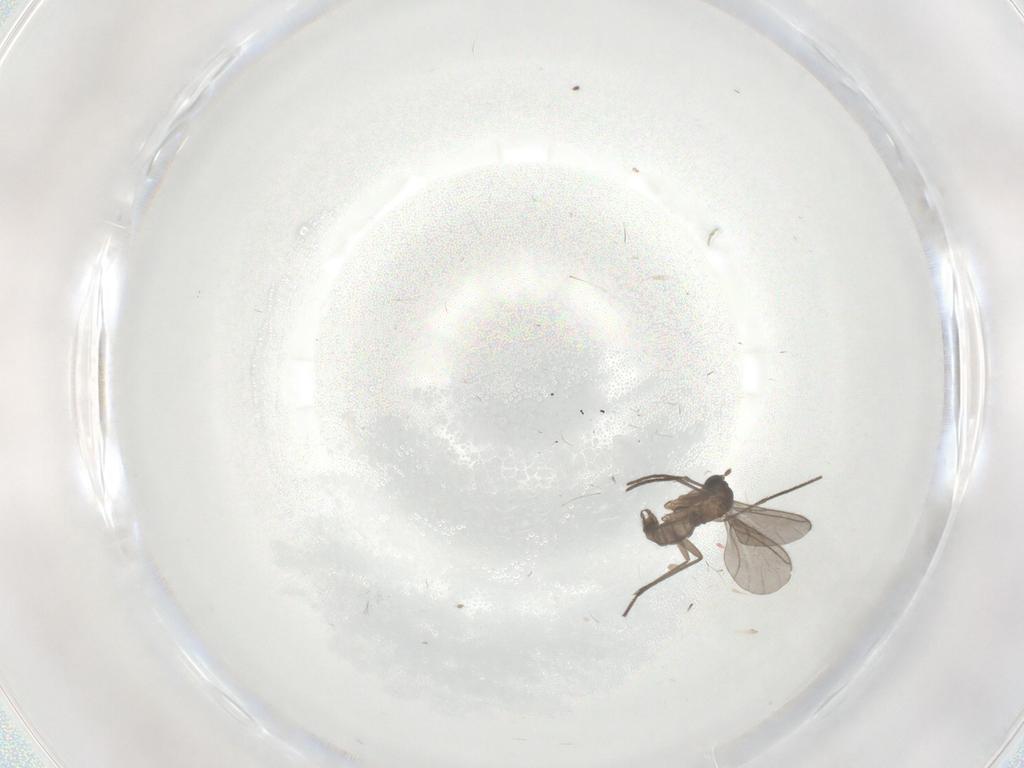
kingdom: Animalia
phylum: Arthropoda
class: Insecta
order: Diptera
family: Sciaridae
